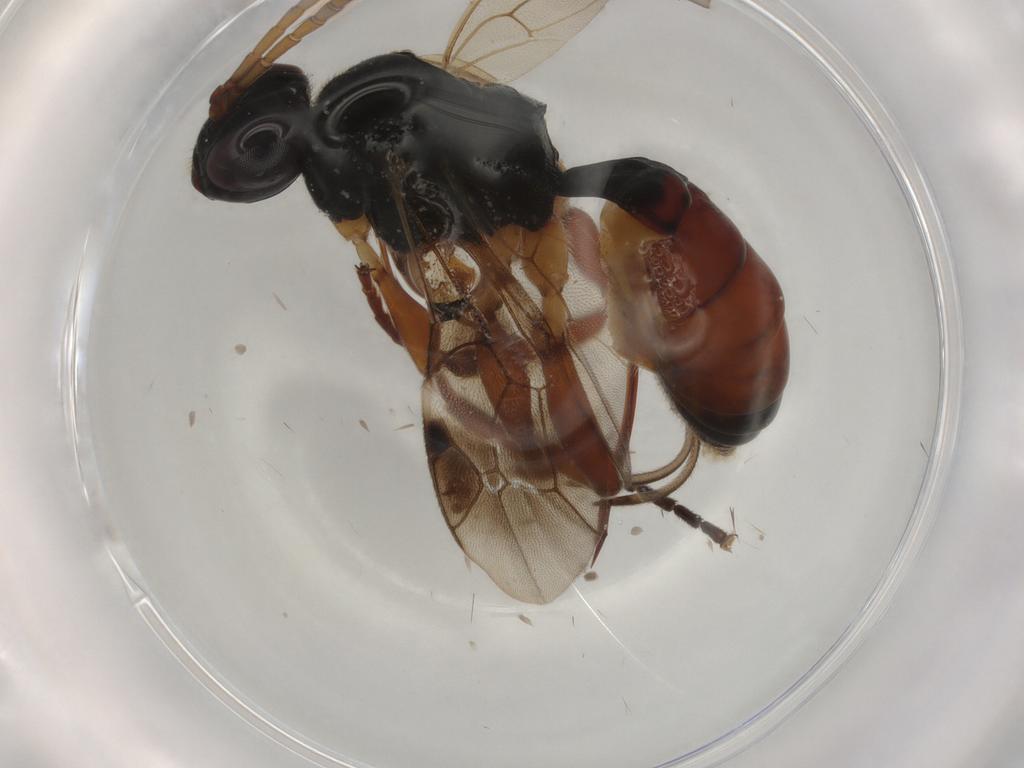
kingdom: Animalia
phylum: Arthropoda
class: Insecta
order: Hymenoptera
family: Ichneumonidae
